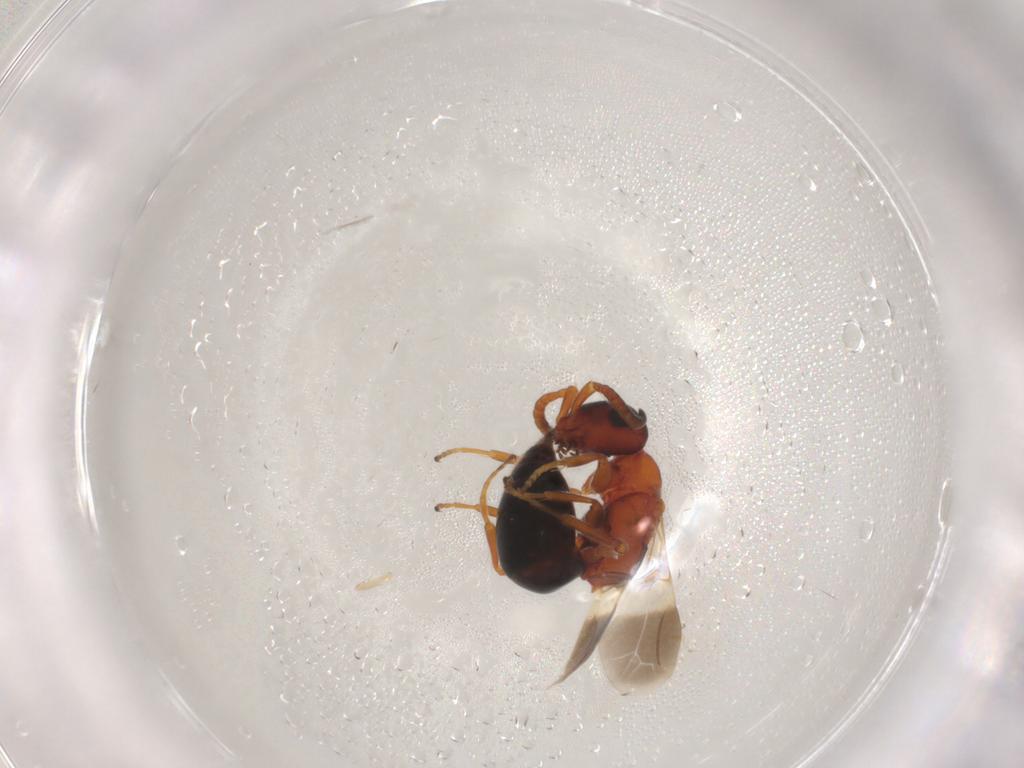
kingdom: Animalia
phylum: Arthropoda
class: Insecta
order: Hymenoptera
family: Bethylidae
